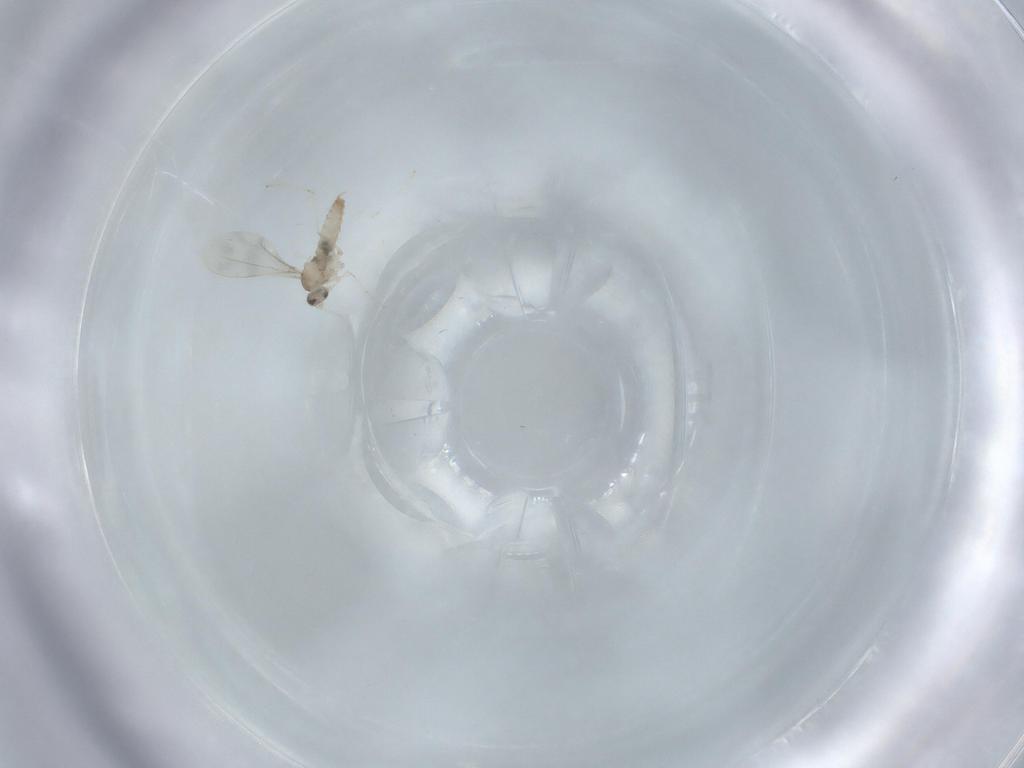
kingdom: Animalia
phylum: Arthropoda
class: Insecta
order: Diptera
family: Cecidomyiidae
